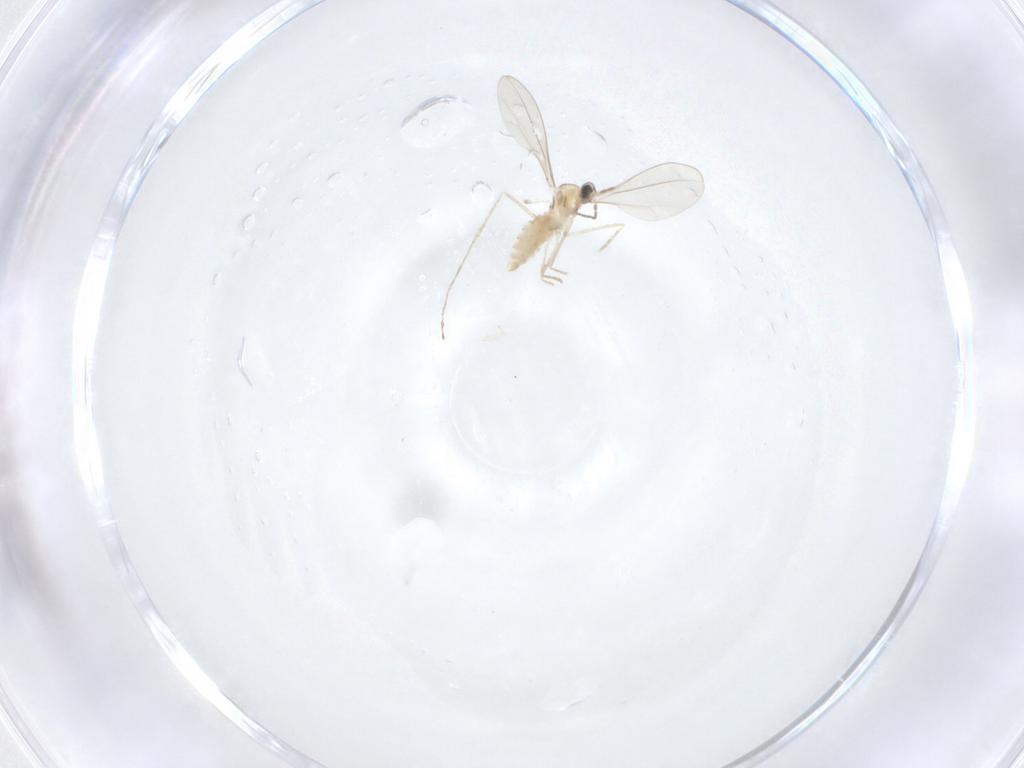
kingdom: Animalia
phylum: Arthropoda
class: Insecta
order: Diptera
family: Cecidomyiidae
